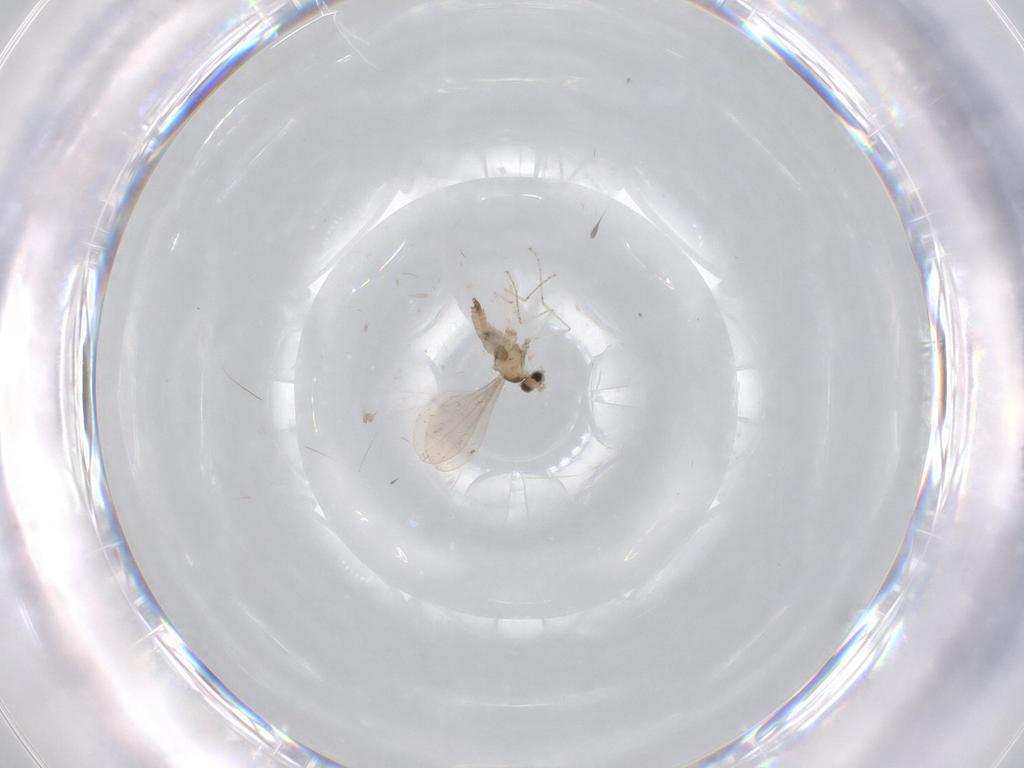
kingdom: Animalia
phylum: Arthropoda
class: Insecta
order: Diptera
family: Cecidomyiidae
